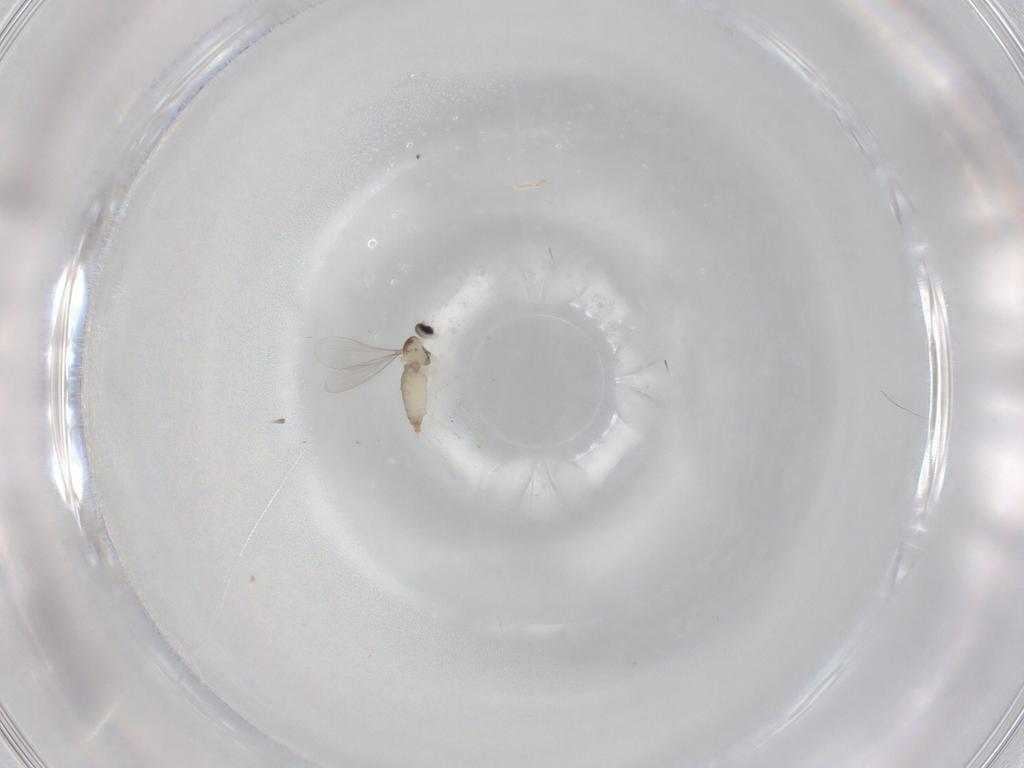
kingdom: Animalia
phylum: Arthropoda
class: Insecta
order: Diptera
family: Ephydridae
